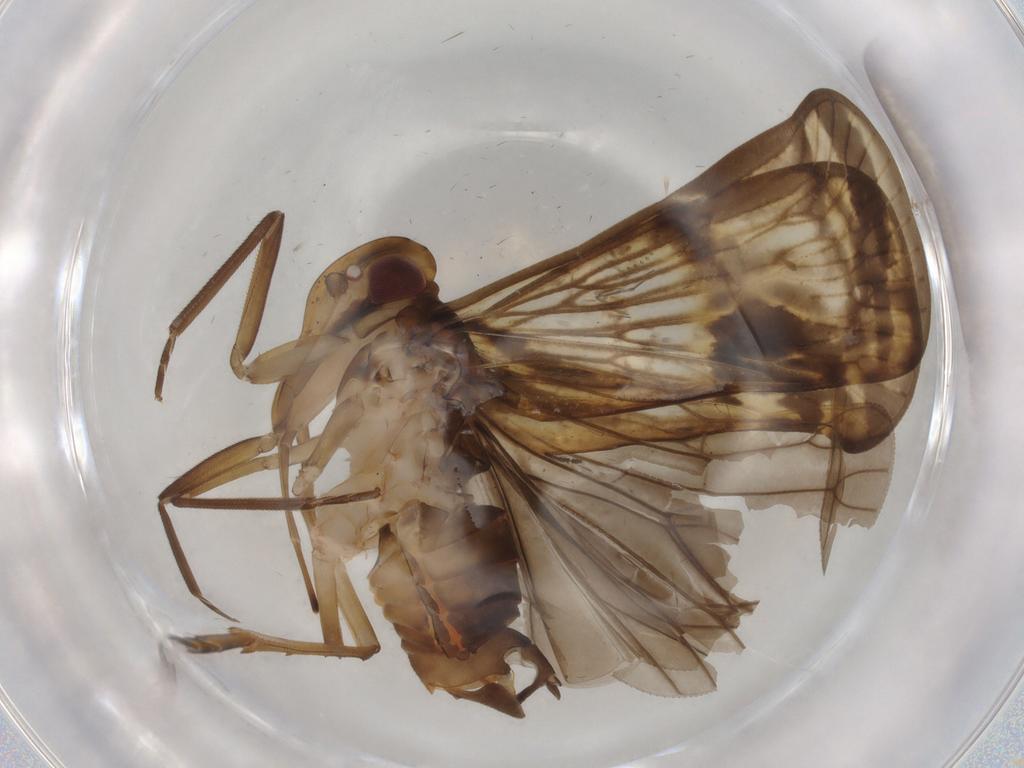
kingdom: Animalia
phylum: Arthropoda
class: Insecta
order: Hemiptera
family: Cixiidae
